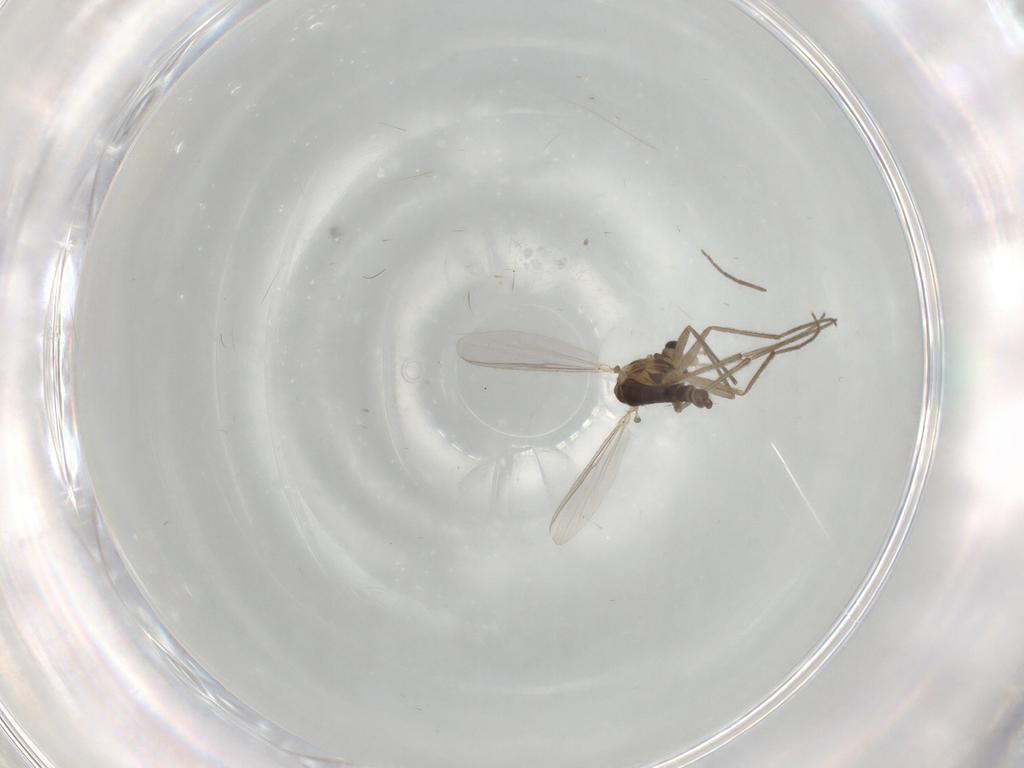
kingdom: Animalia
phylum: Arthropoda
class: Insecta
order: Diptera
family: Chironomidae
